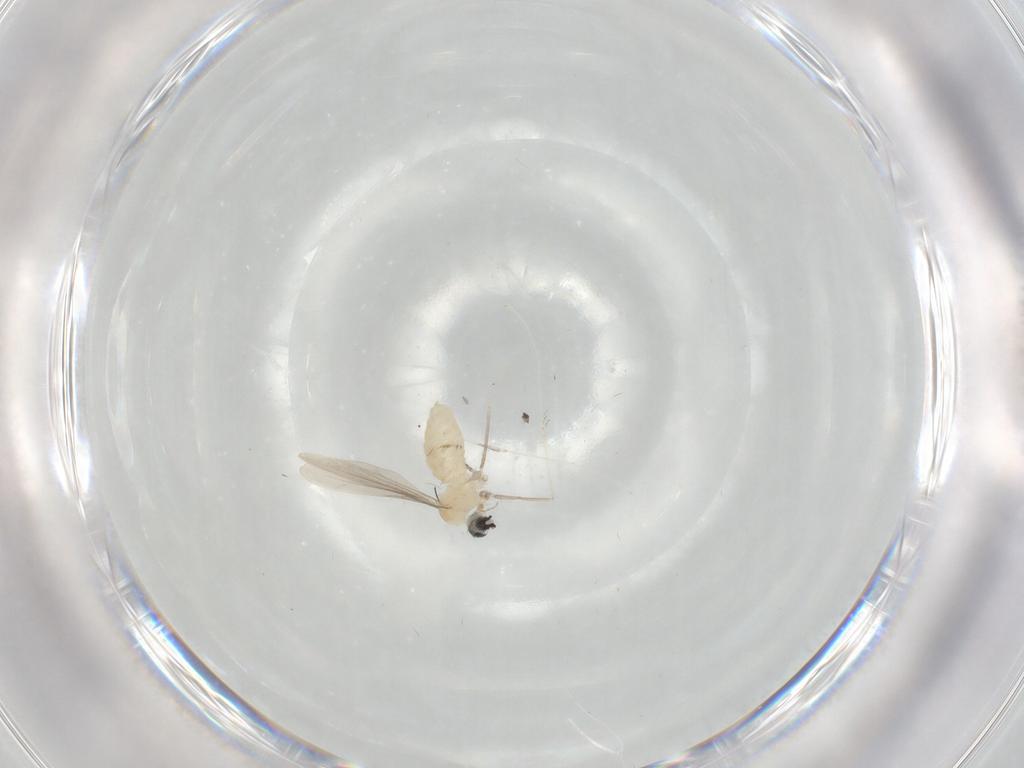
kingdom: Animalia
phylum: Arthropoda
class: Insecta
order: Diptera
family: Cecidomyiidae
